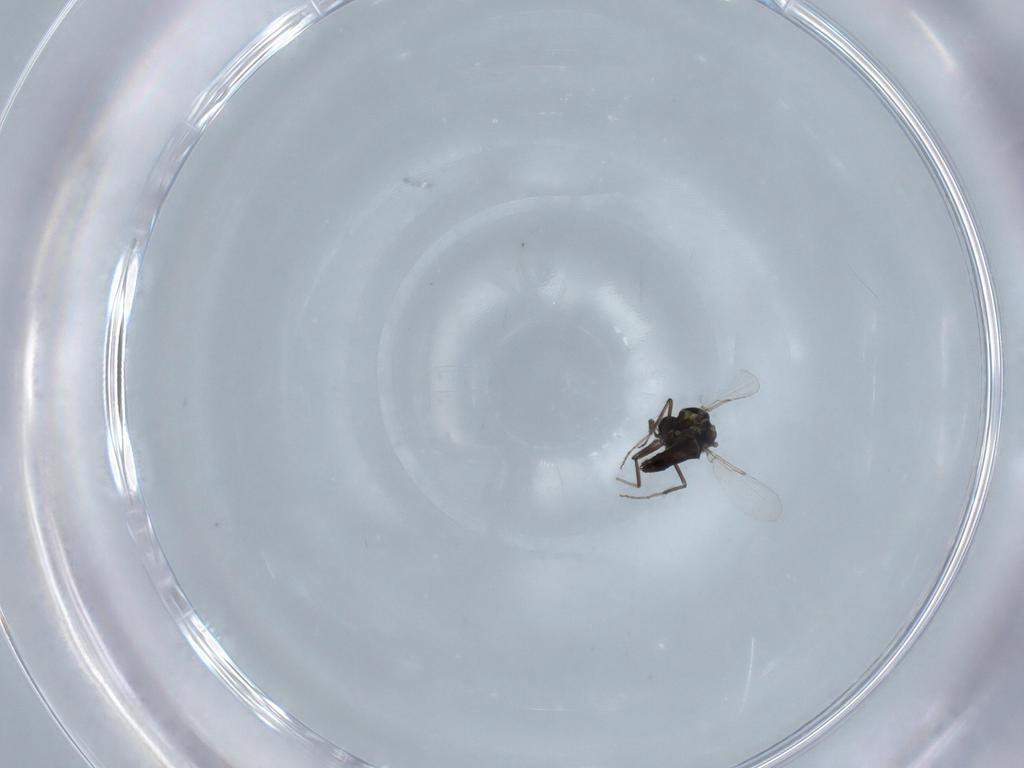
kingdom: Animalia
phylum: Arthropoda
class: Insecta
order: Diptera
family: Ceratopogonidae
